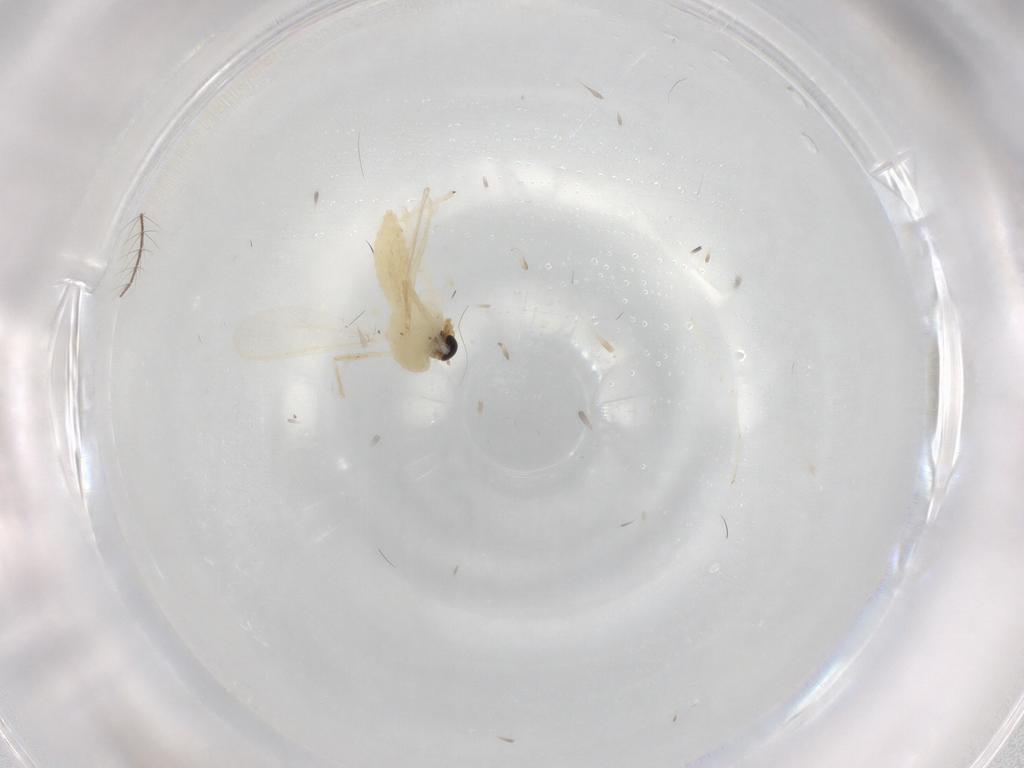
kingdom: Animalia
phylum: Arthropoda
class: Insecta
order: Diptera
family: Chironomidae
